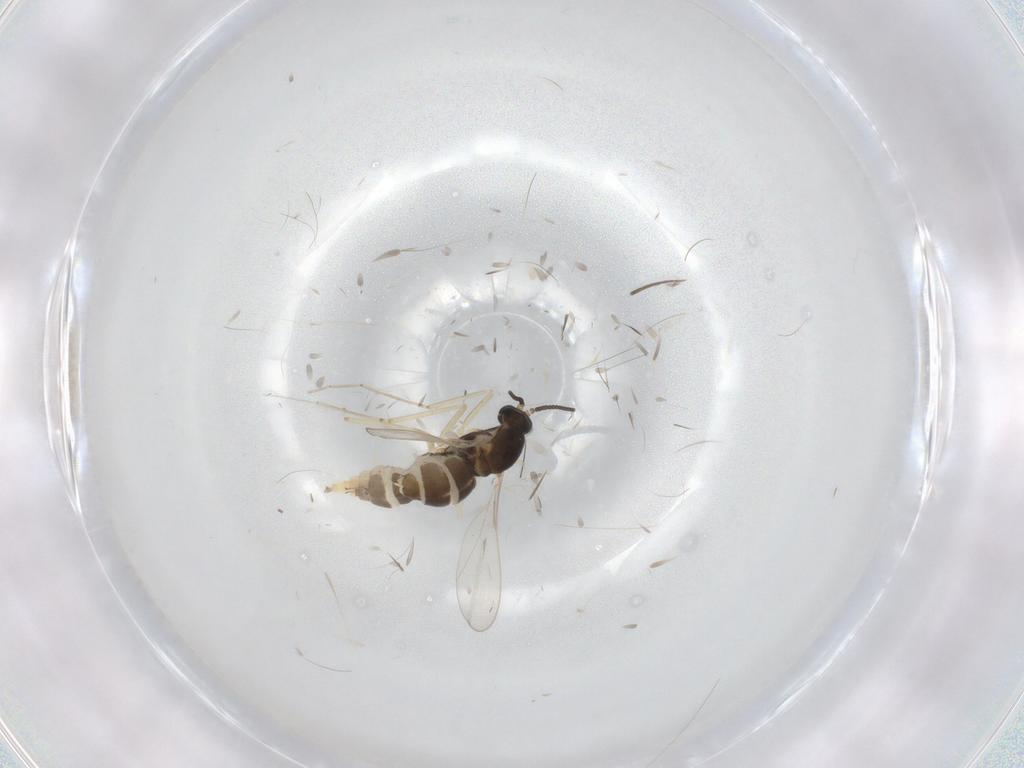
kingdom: Animalia
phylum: Arthropoda
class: Insecta
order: Diptera
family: Cecidomyiidae
